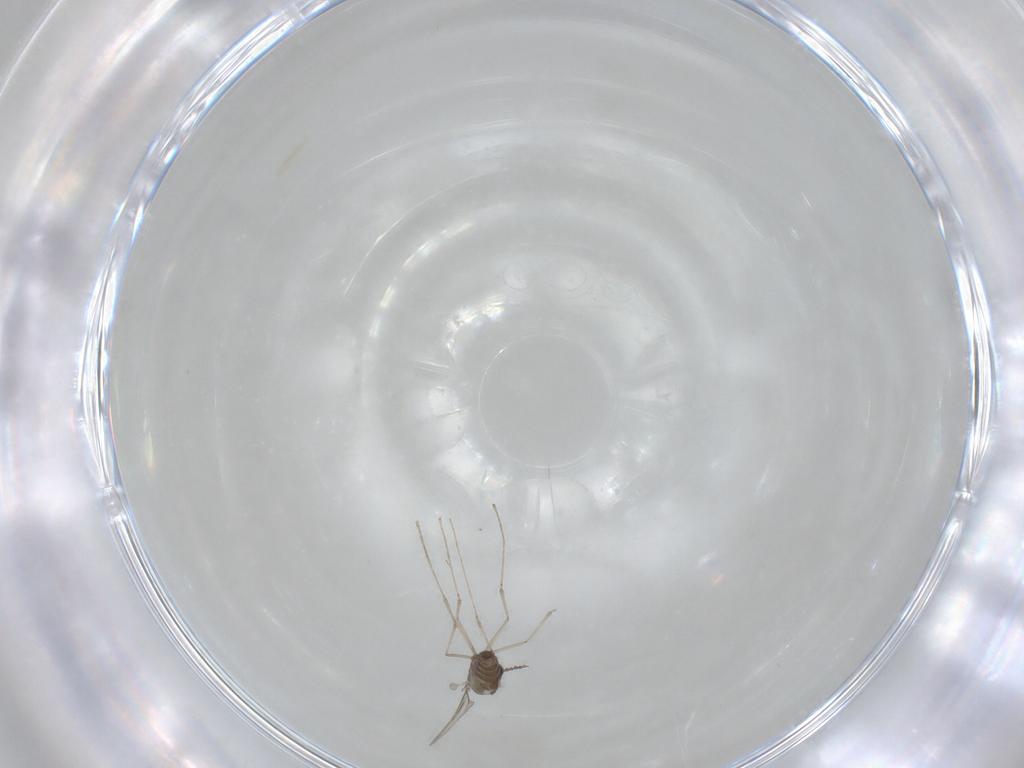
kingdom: Animalia
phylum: Arthropoda
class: Insecta
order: Diptera
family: Cecidomyiidae
